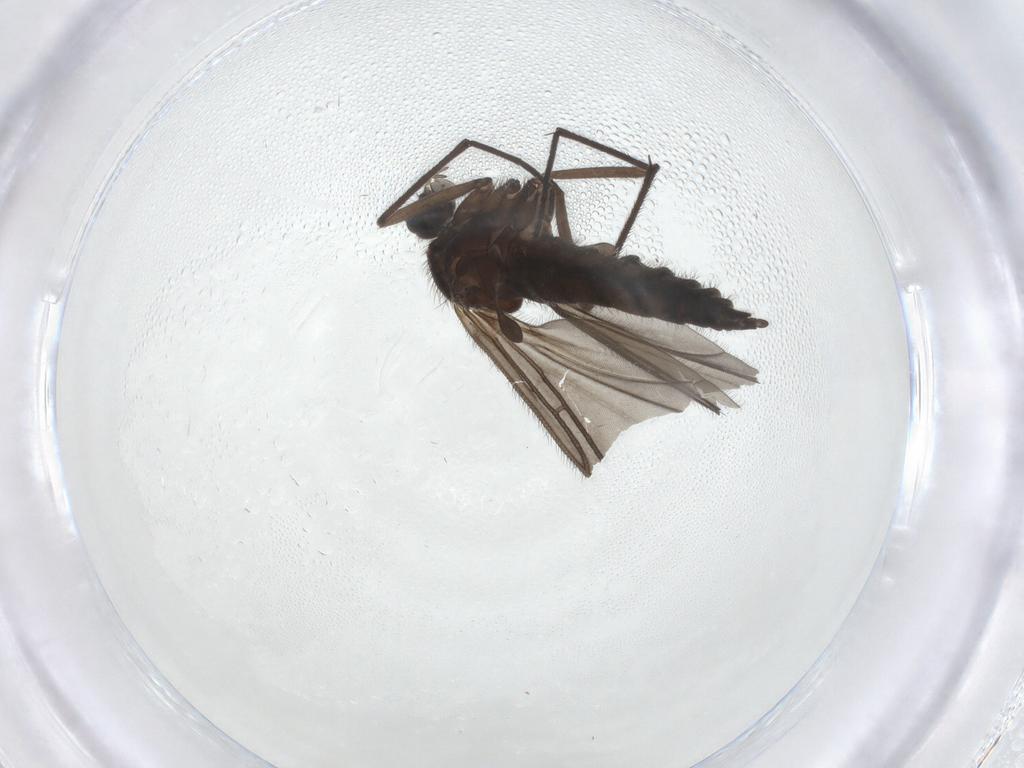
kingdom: Animalia
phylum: Arthropoda
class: Insecta
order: Diptera
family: Sciaridae
